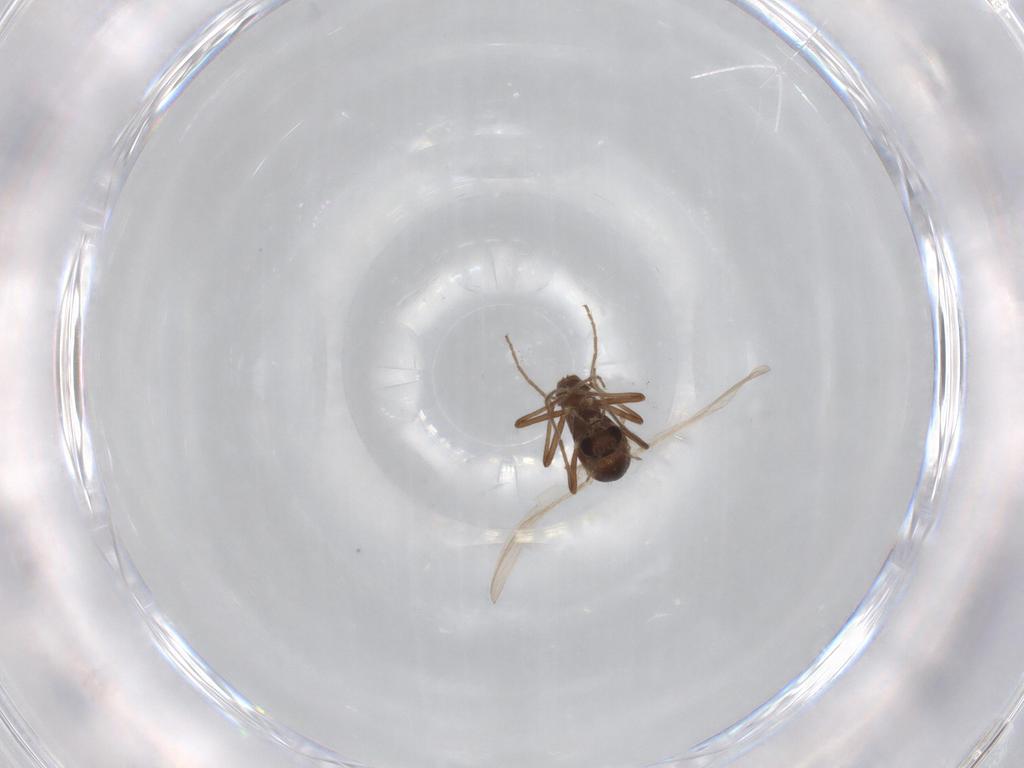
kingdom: Animalia
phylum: Arthropoda
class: Insecta
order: Diptera
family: Chironomidae
